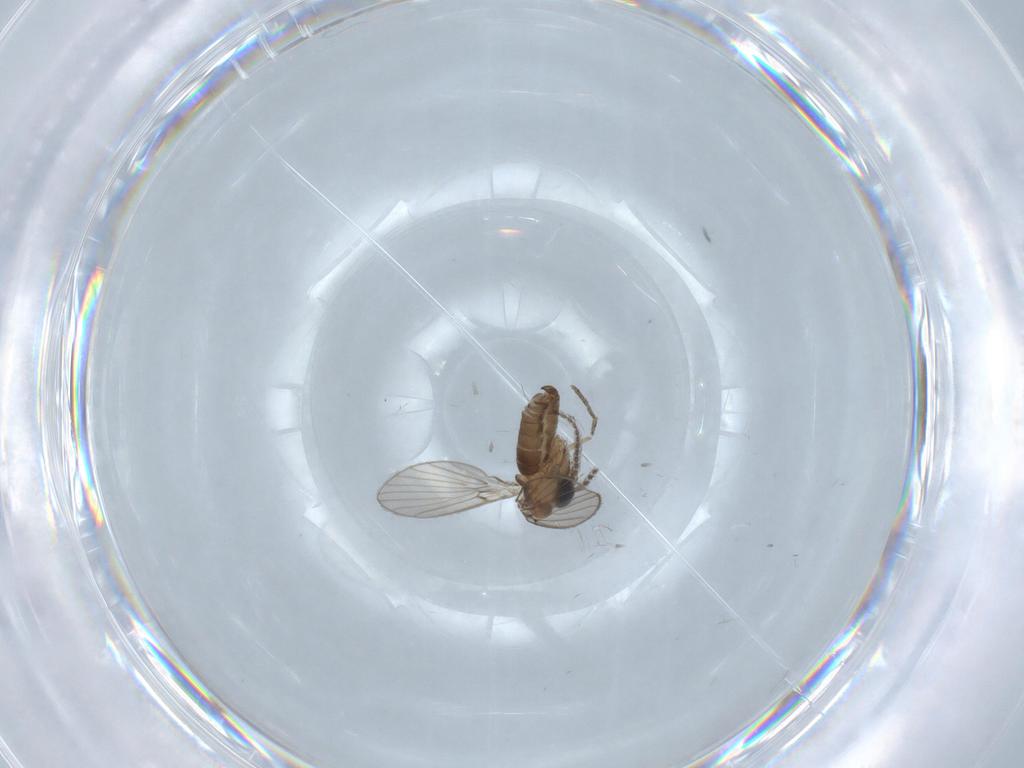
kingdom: Animalia
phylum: Arthropoda
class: Insecta
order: Diptera
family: Psychodidae
